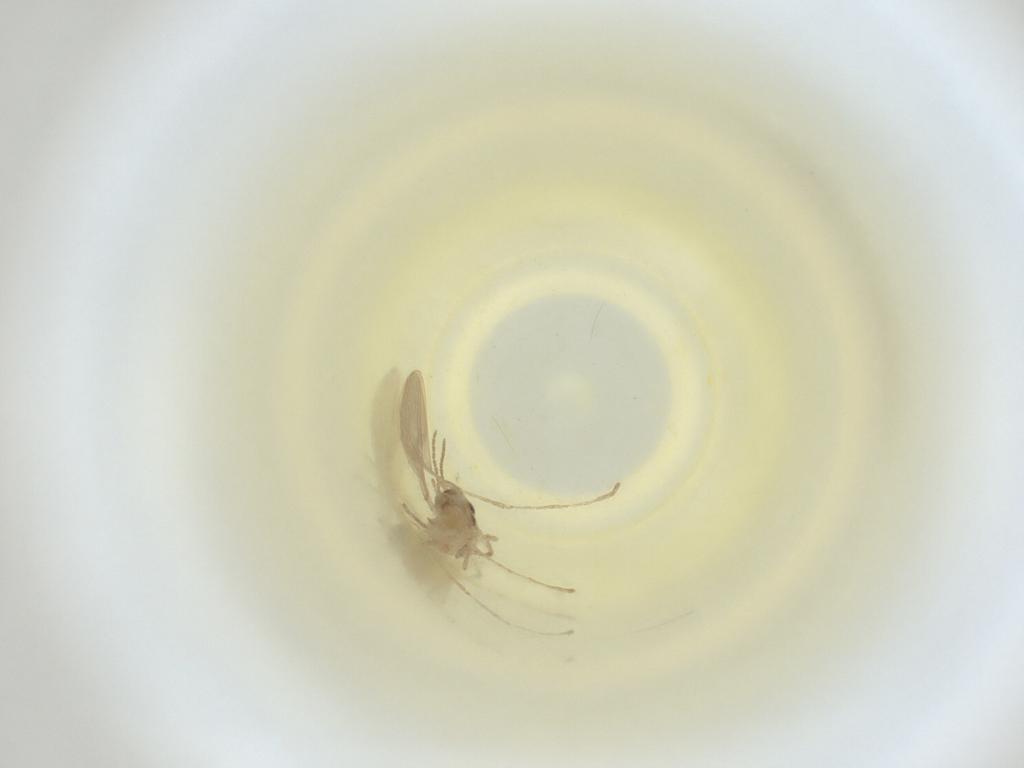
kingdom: Animalia
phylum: Arthropoda
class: Insecta
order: Diptera
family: Cecidomyiidae
